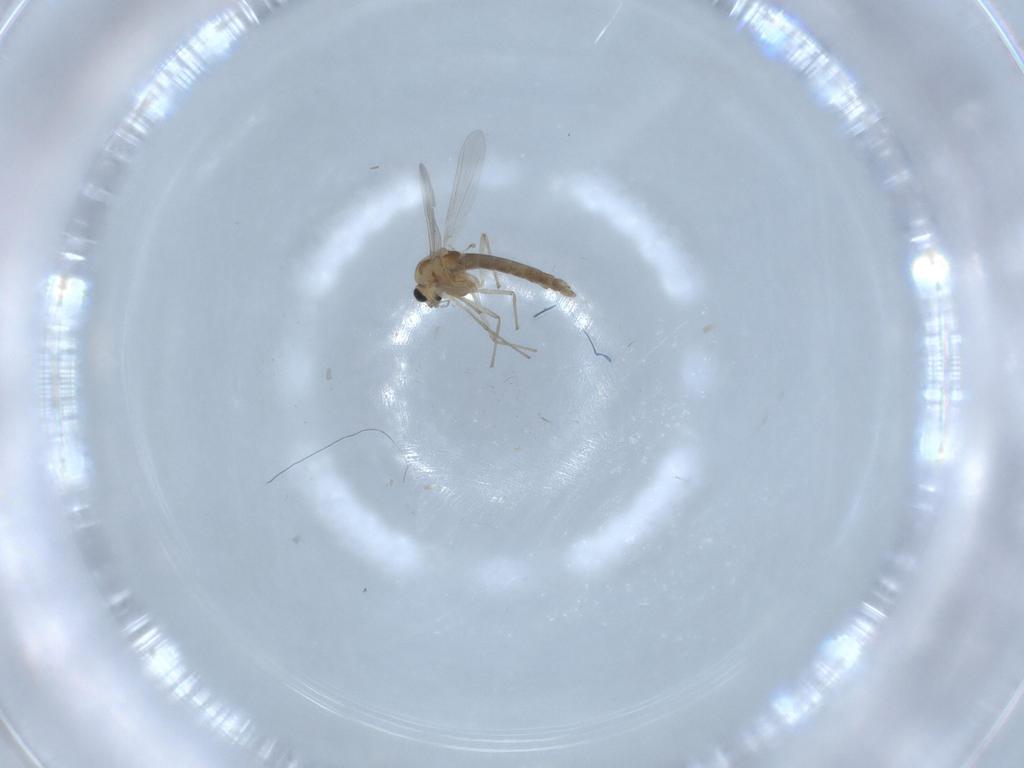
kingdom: Animalia
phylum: Arthropoda
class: Insecta
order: Diptera
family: Chironomidae
